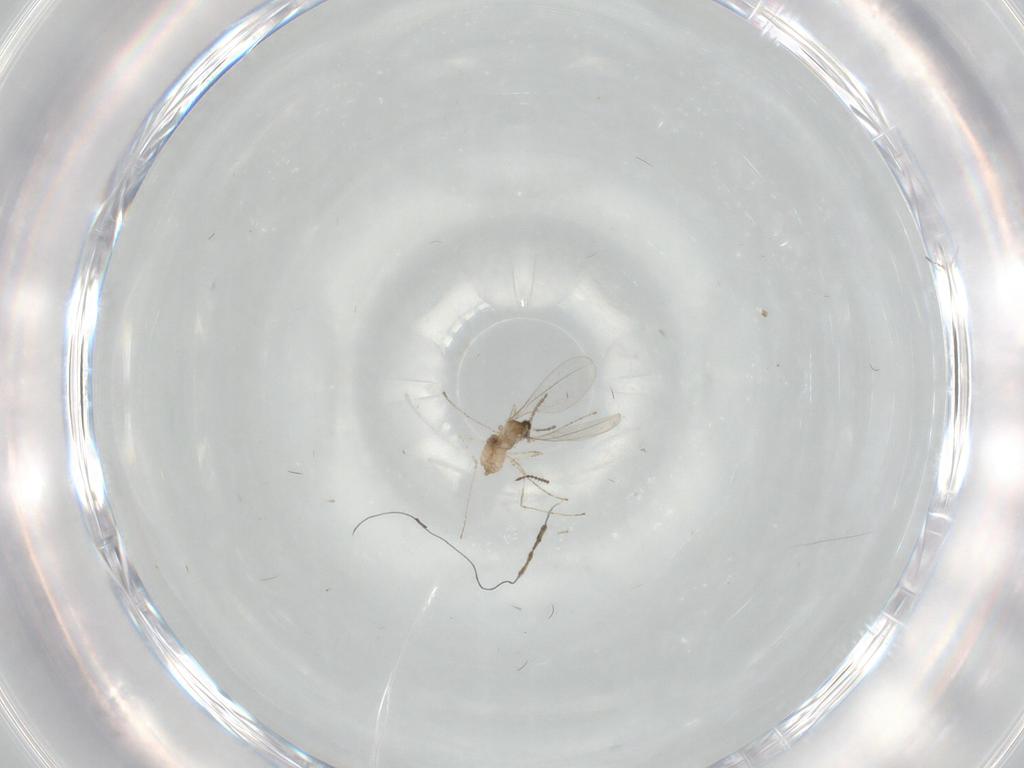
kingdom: Animalia
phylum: Arthropoda
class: Insecta
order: Diptera
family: Cecidomyiidae
